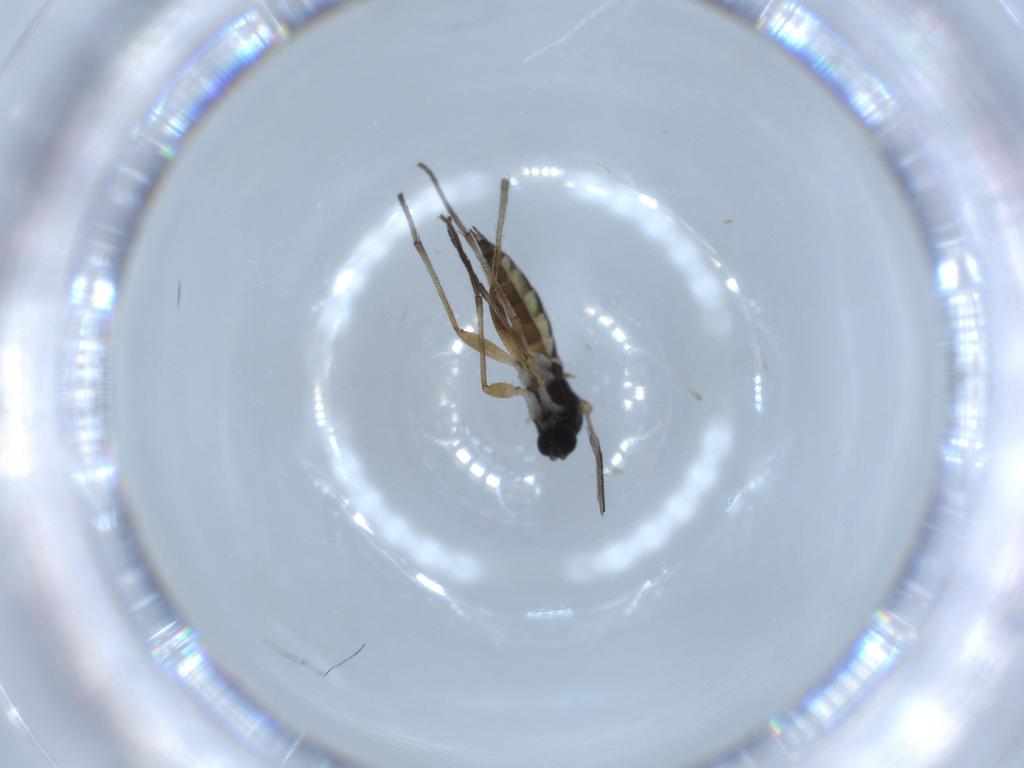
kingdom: Animalia
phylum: Arthropoda
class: Insecta
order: Diptera
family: Sciaridae
